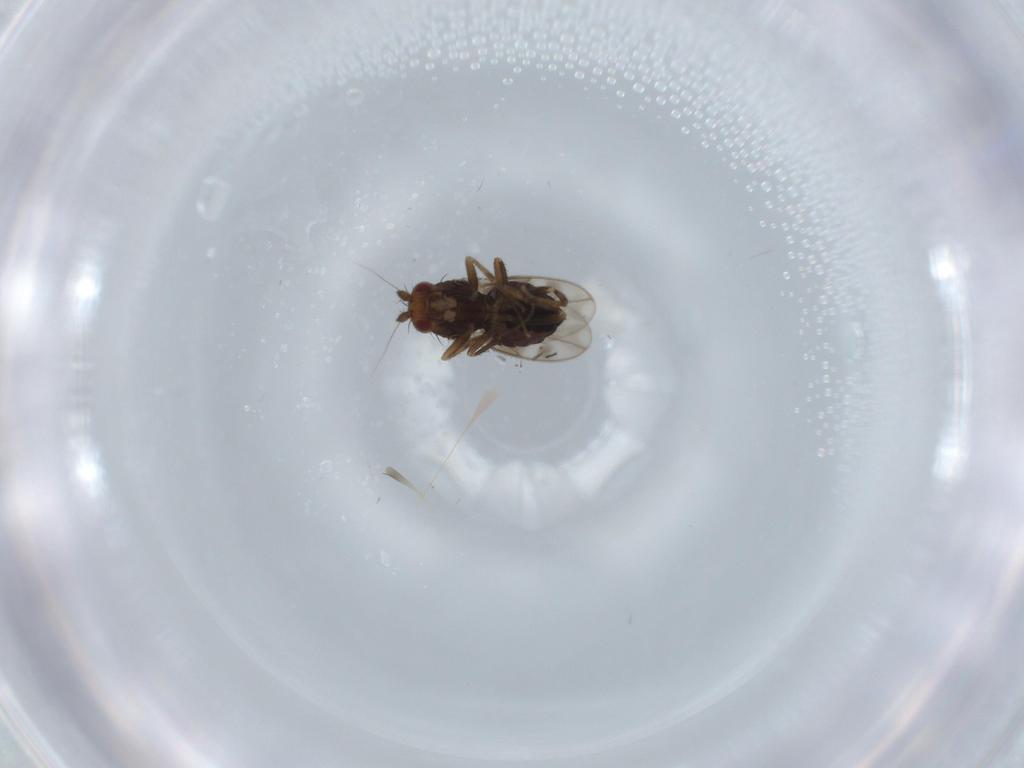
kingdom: Animalia
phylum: Arthropoda
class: Insecta
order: Diptera
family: Sphaeroceridae
